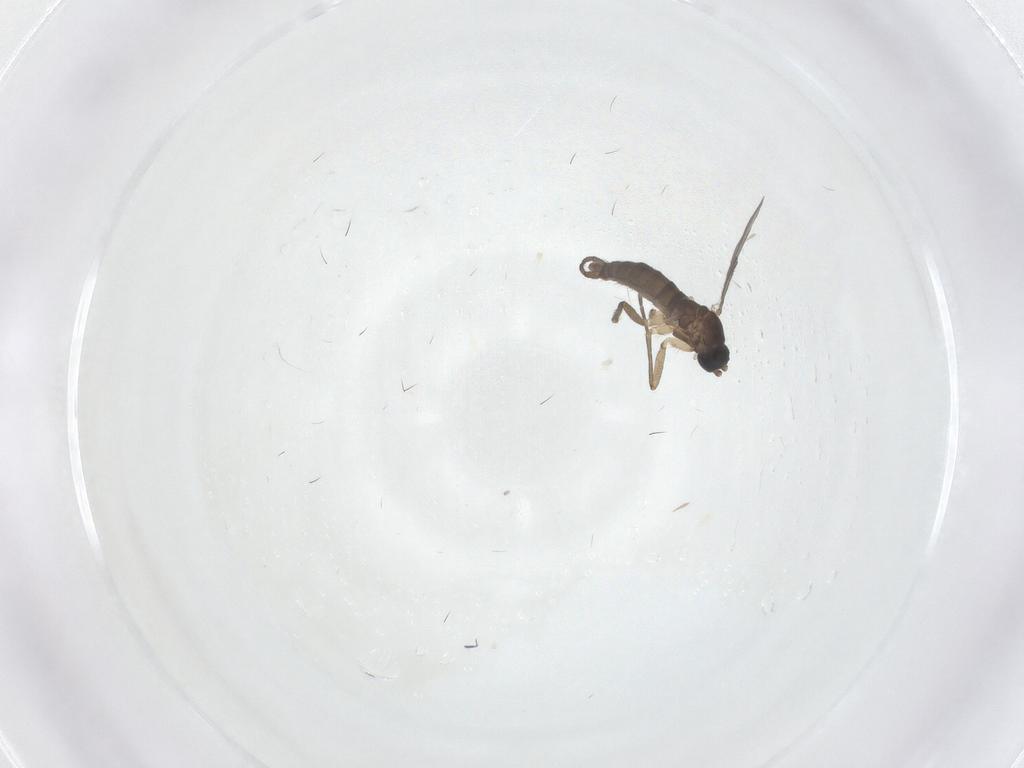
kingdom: Animalia
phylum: Arthropoda
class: Insecta
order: Diptera
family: Sciaridae
